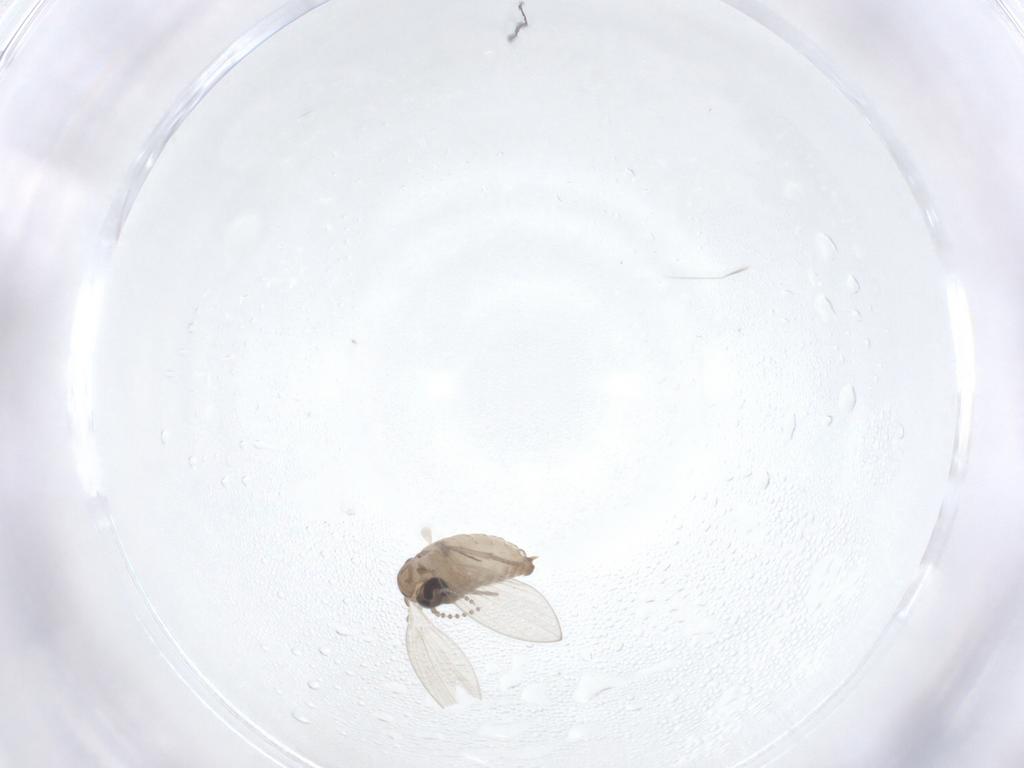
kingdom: Animalia
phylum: Arthropoda
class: Insecta
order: Diptera
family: Psychodidae
